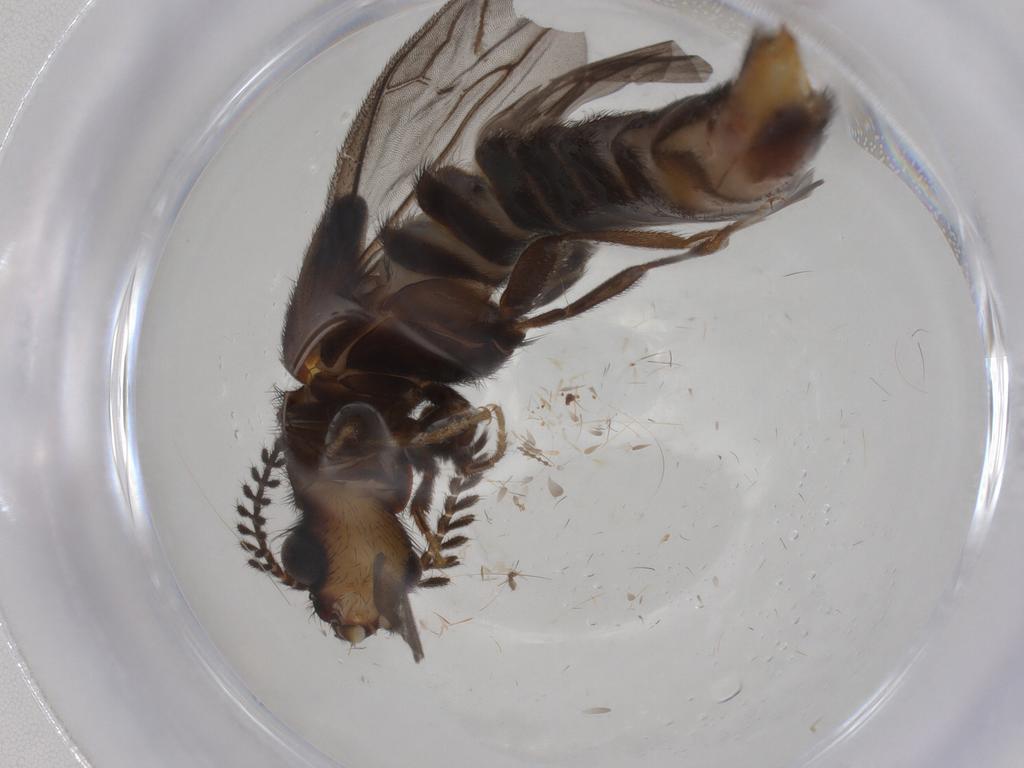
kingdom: Animalia
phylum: Arthropoda
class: Insecta
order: Coleoptera
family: Phengodidae
